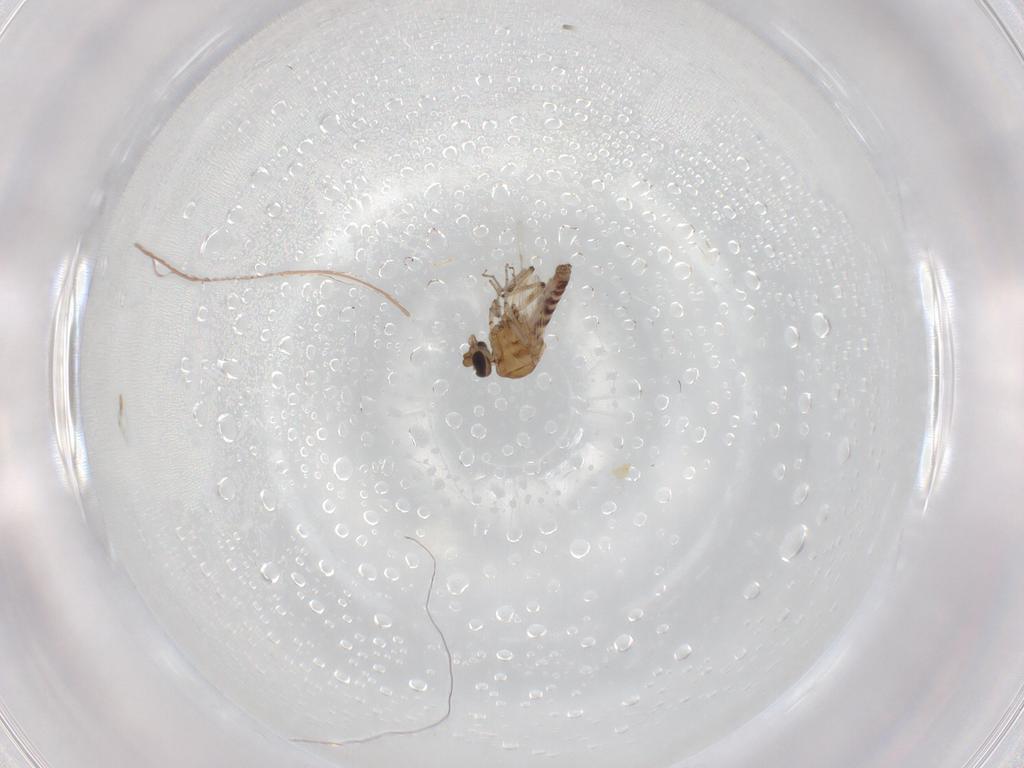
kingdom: Animalia
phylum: Arthropoda
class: Insecta
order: Diptera
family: Ceratopogonidae
